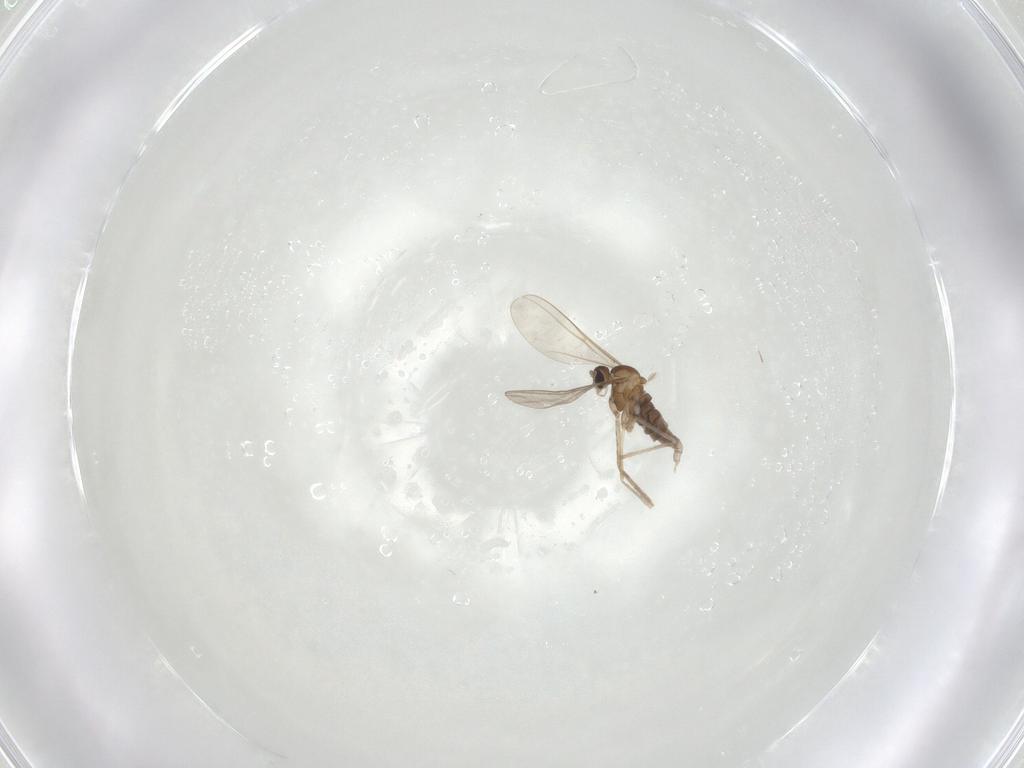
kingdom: Animalia
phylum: Arthropoda
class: Insecta
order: Diptera
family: Cecidomyiidae
